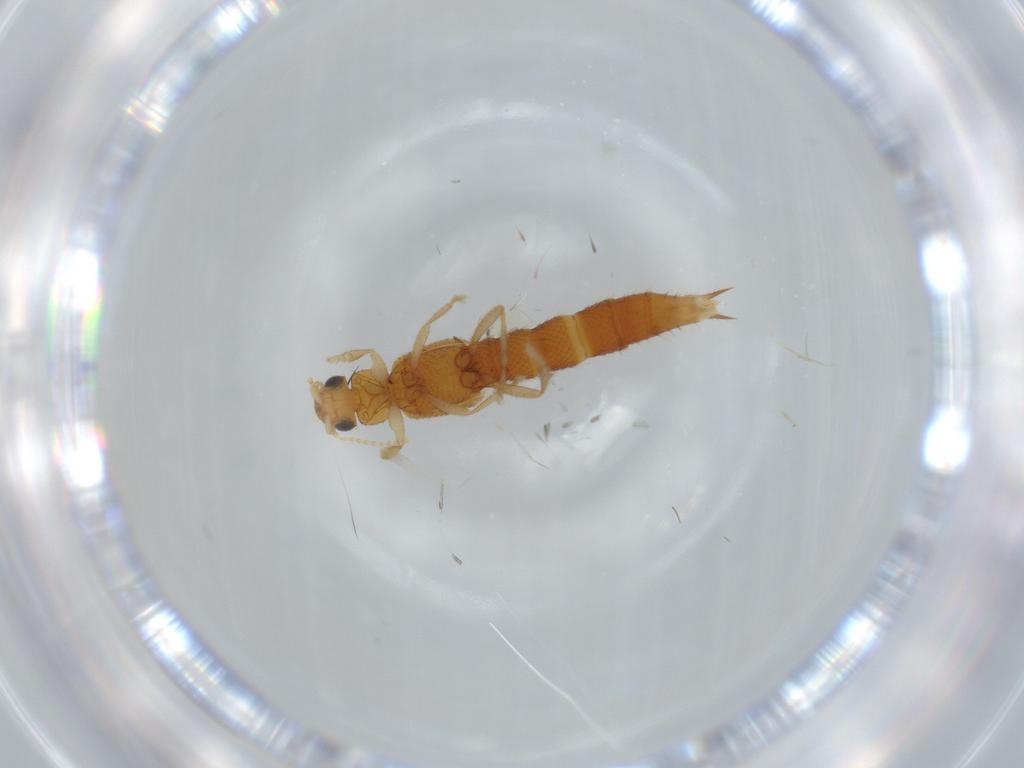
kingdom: Animalia
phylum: Arthropoda
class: Insecta
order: Coleoptera
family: Staphylinidae
